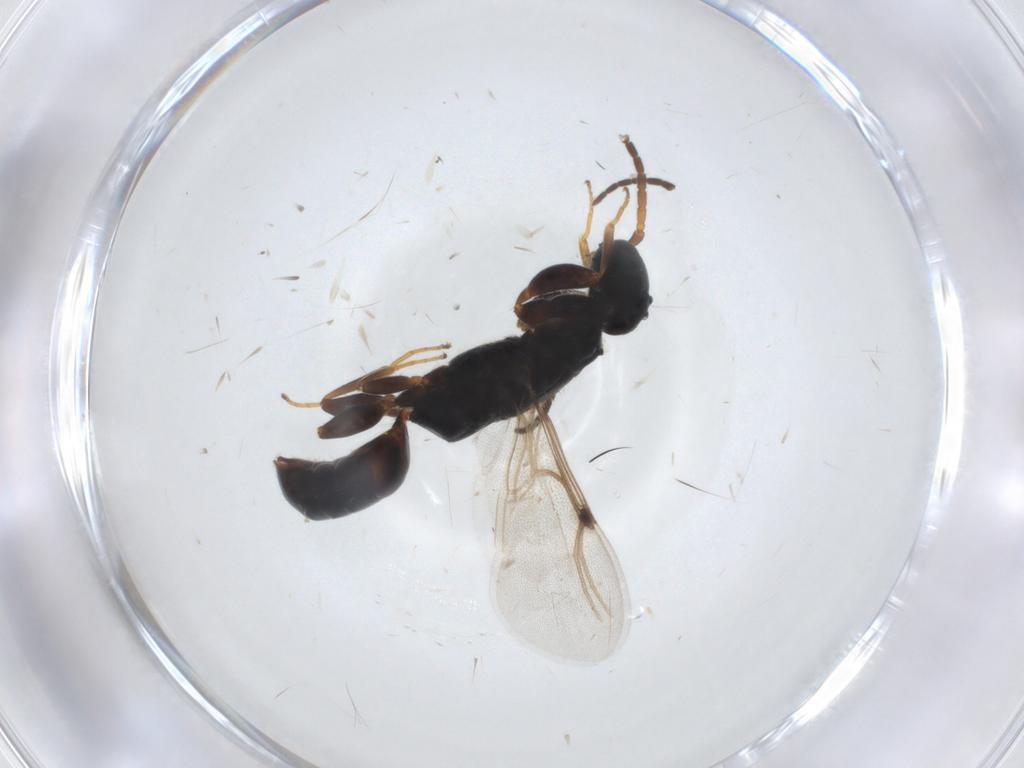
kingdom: Animalia
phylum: Arthropoda
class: Insecta
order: Hymenoptera
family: Bethylidae
